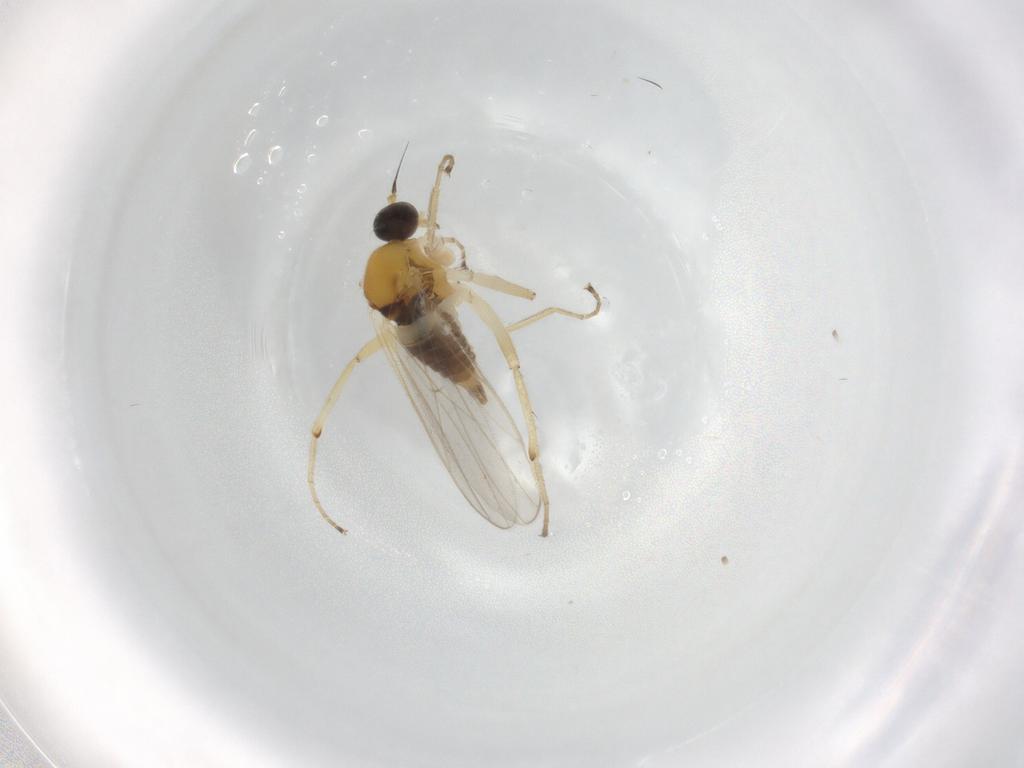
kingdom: Animalia
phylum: Arthropoda
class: Insecta
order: Diptera
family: Hybotidae
